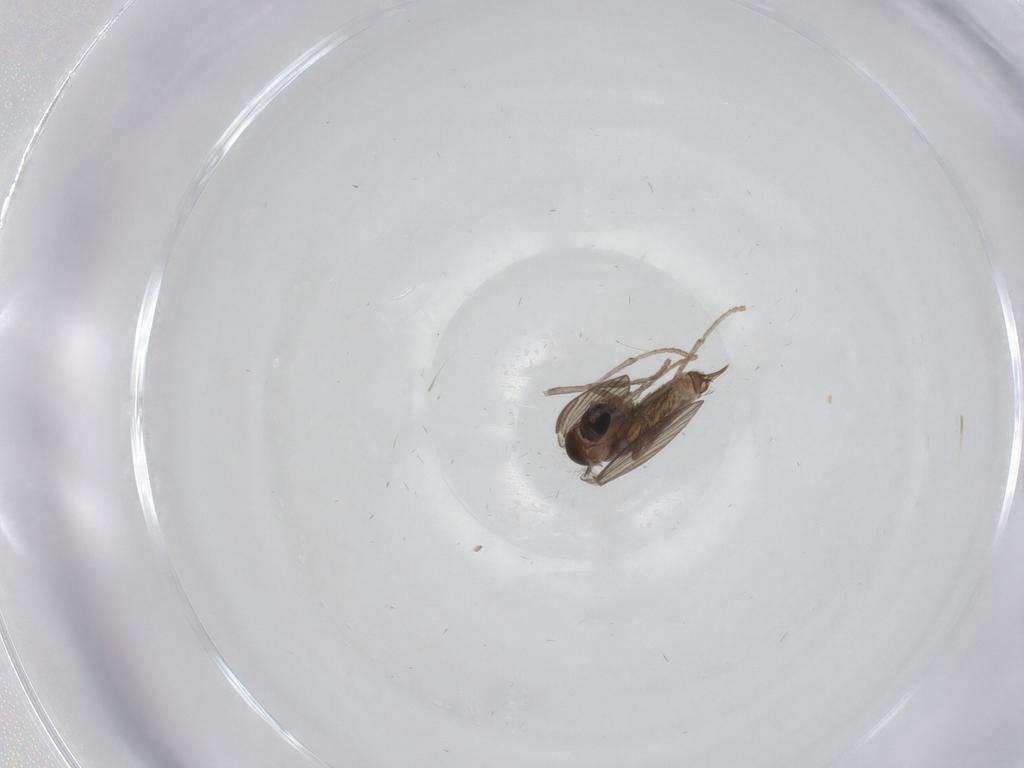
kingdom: Animalia
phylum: Arthropoda
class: Insecta
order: Diptera
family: Psychodidae
